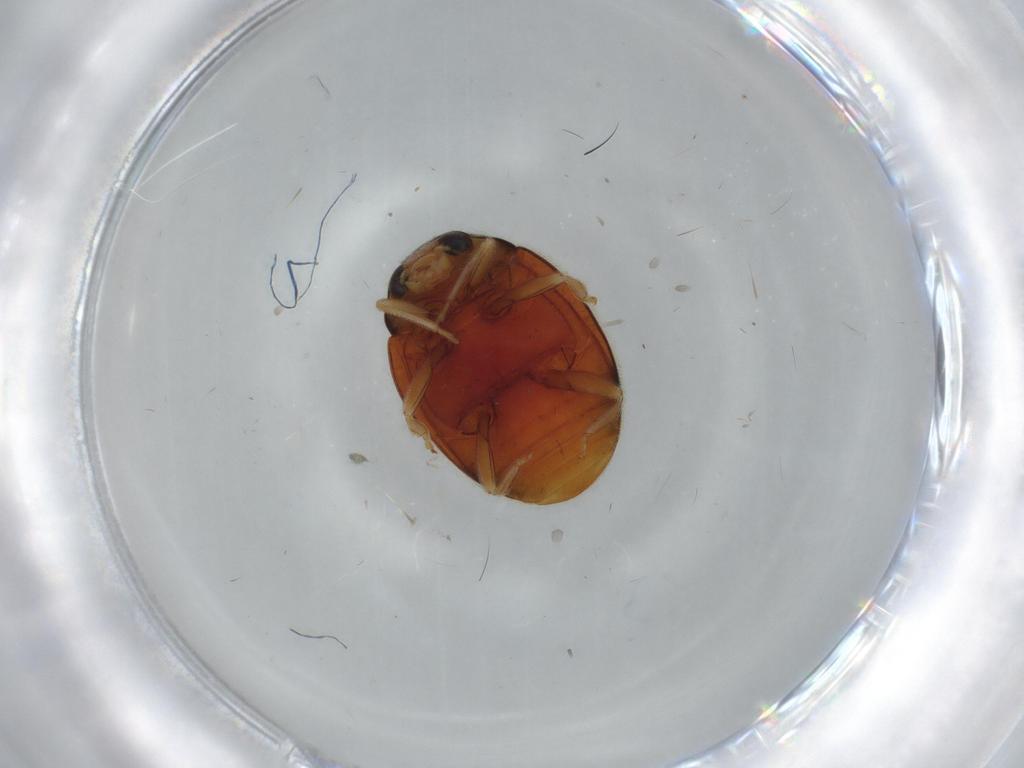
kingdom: Animalia
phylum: Arthropoda
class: Insecta
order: Coleoptera
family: Coccinellidae
